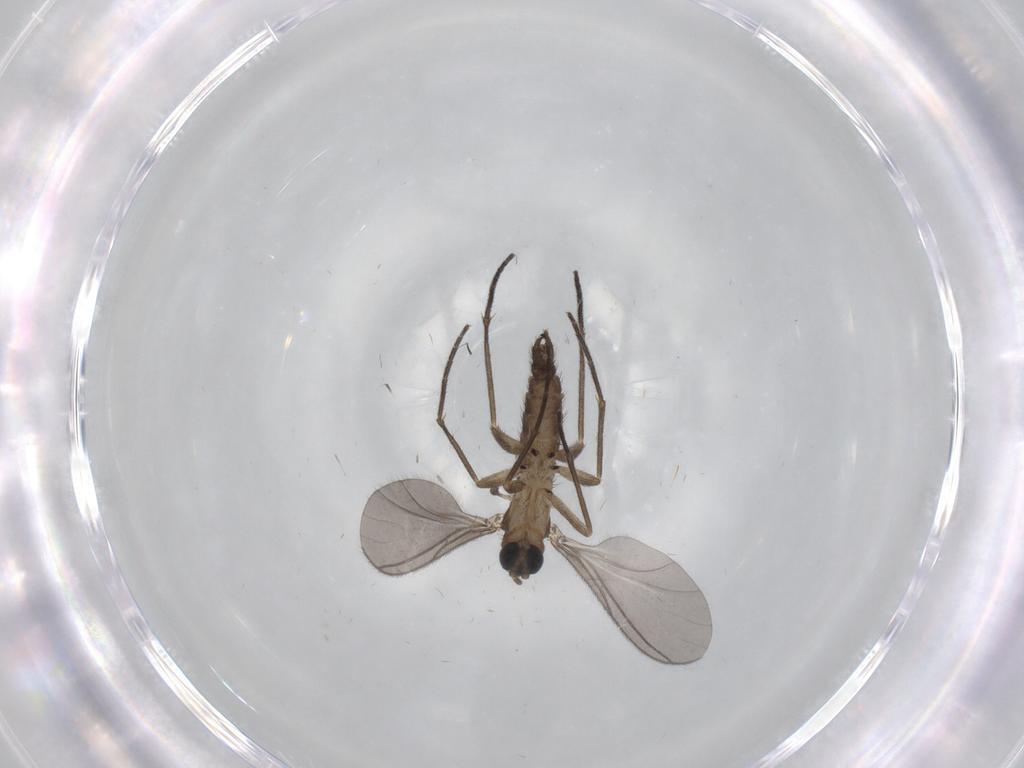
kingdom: Animalia
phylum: Arthropoda
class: Insecta
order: Diptera
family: Sciaridae
